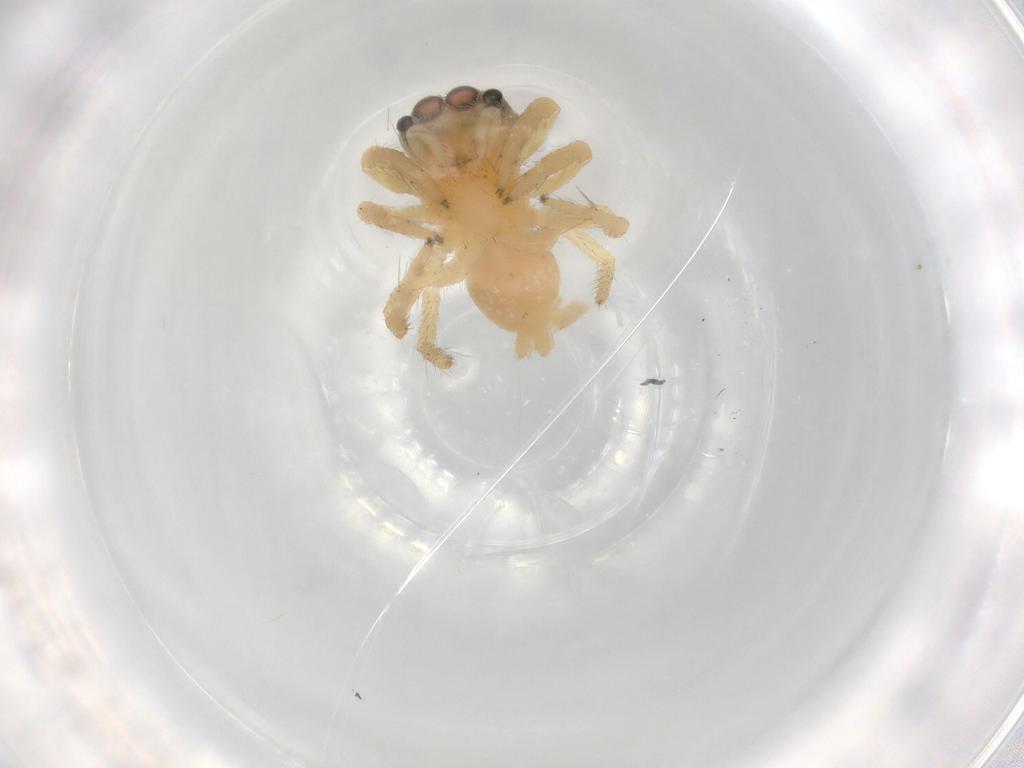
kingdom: Animalia
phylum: Arthropoda
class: Arachnida
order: Araneae
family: Salticidae
